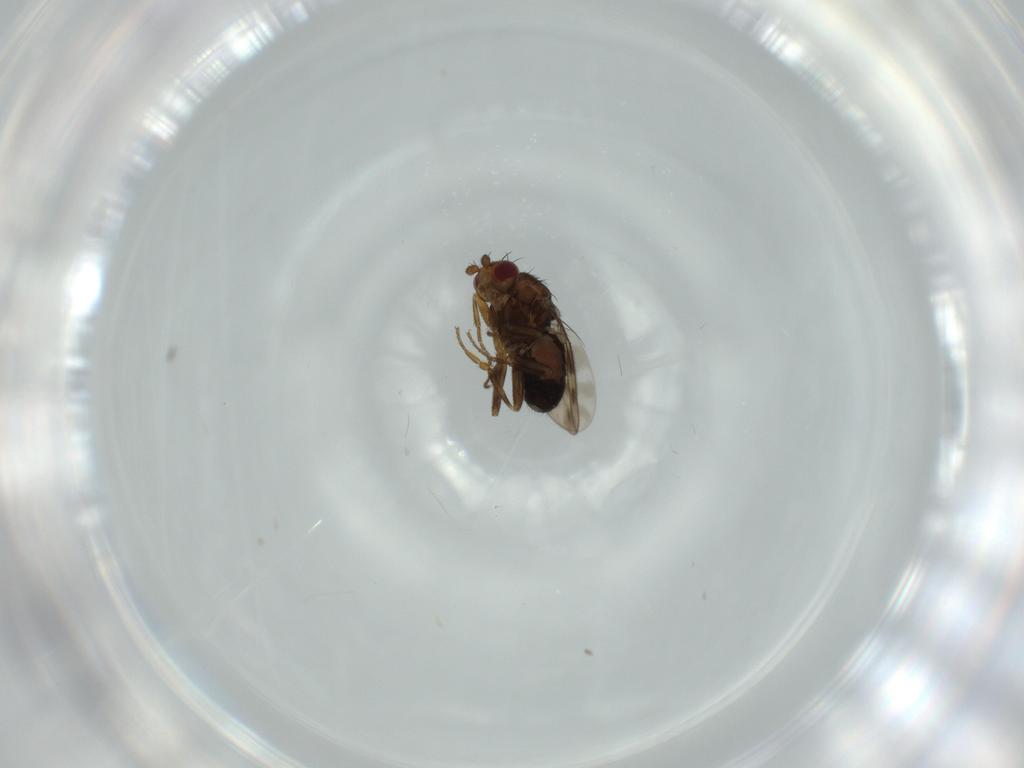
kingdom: Animalia
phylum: Arthropoda
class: Insecta
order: Diptera
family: Sphaeroceridae
